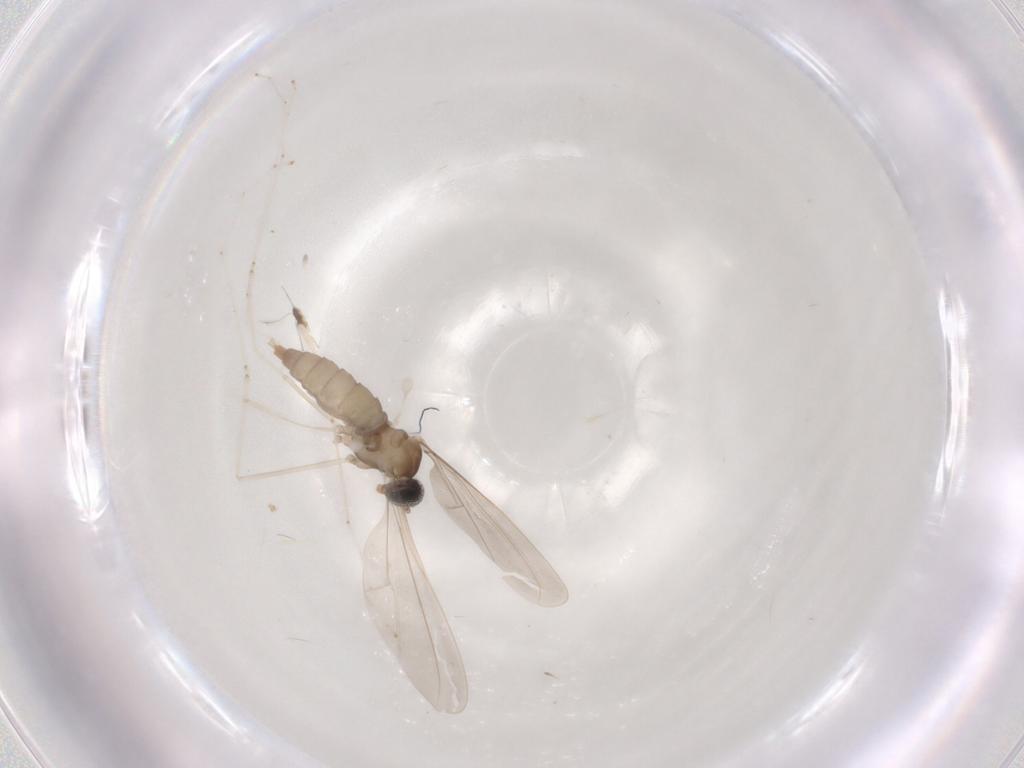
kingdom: Animalia
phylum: Arthropoda
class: Insecta
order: Diptera
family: Cecidomyiidae
